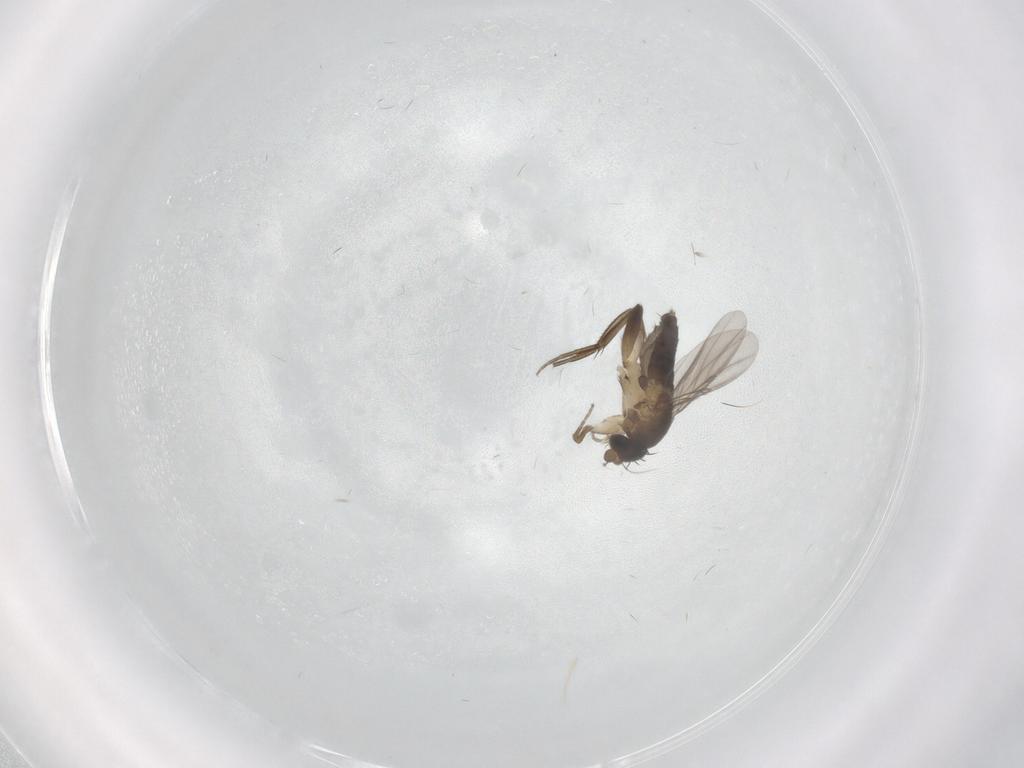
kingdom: Animalia
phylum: Arthropoda
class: Insecta
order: Diptera
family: Phoridae
